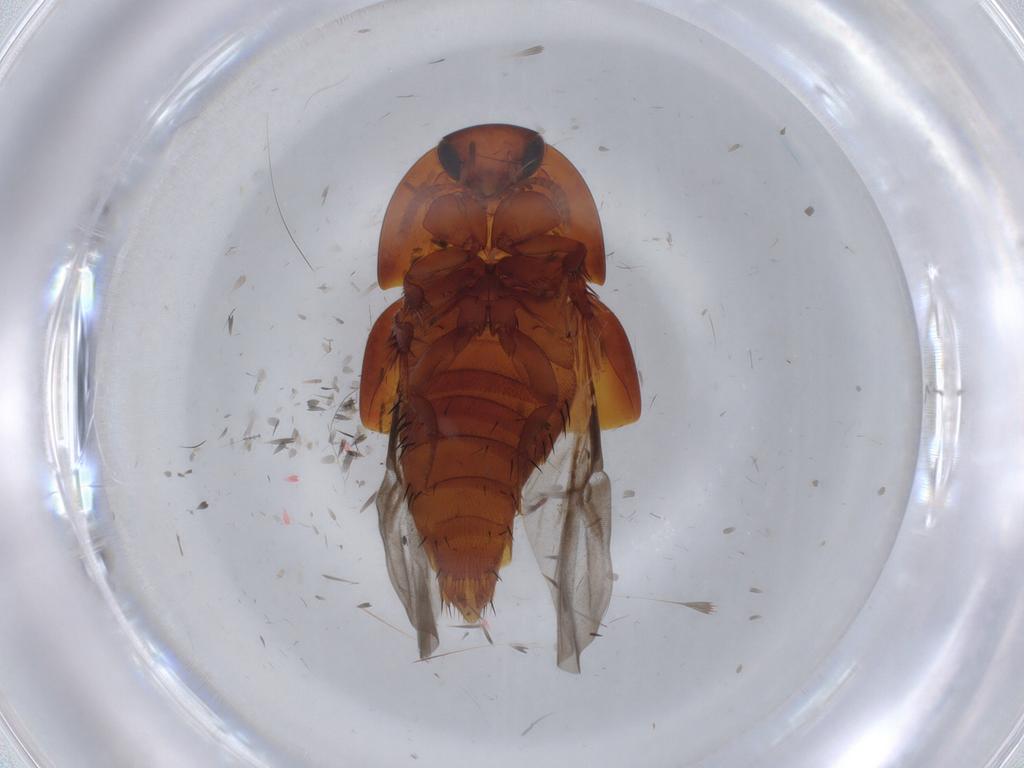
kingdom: Animalia
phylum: Arthropoda
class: Insecta
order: Coleoptera
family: Staphylinidae
